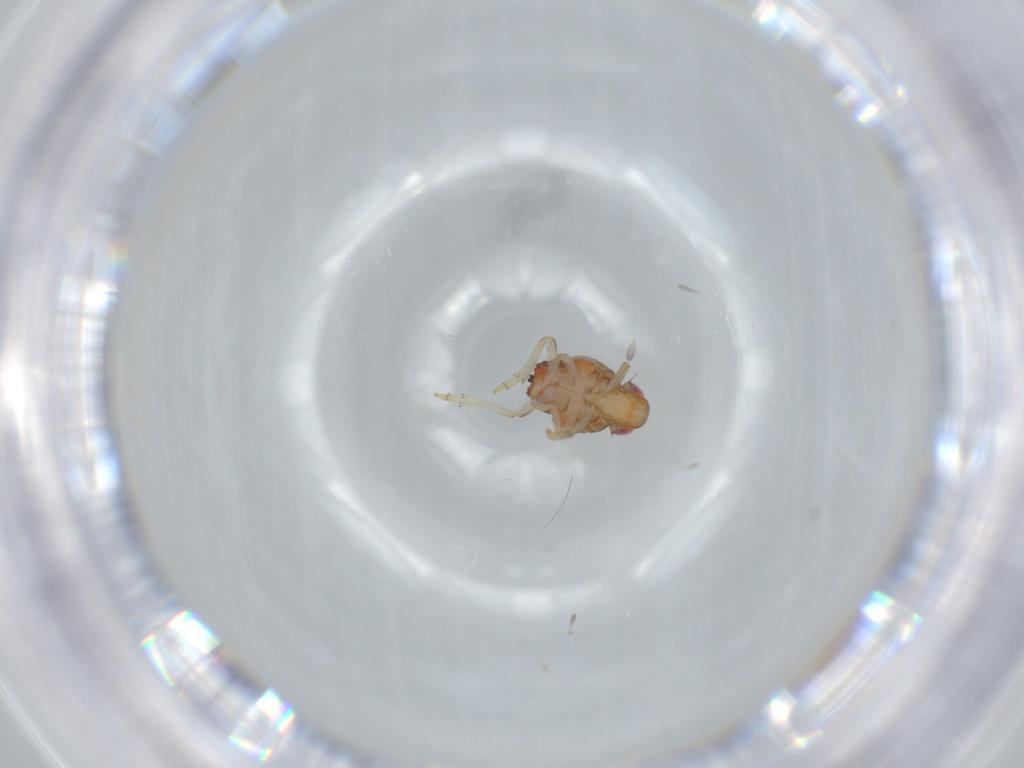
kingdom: Animalia
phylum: Arthropoda
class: Insecta
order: Hemiptera
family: Issidae
